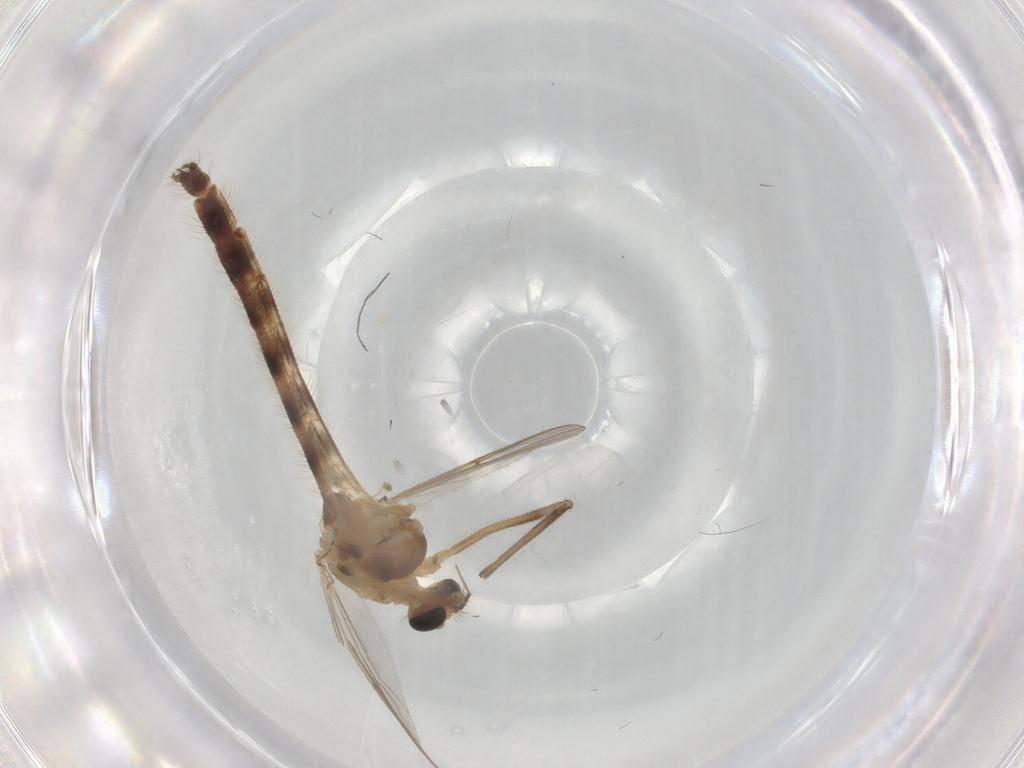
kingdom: Animalia
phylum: Arthropoda
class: Insecta
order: Diptera
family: Chironomidae
